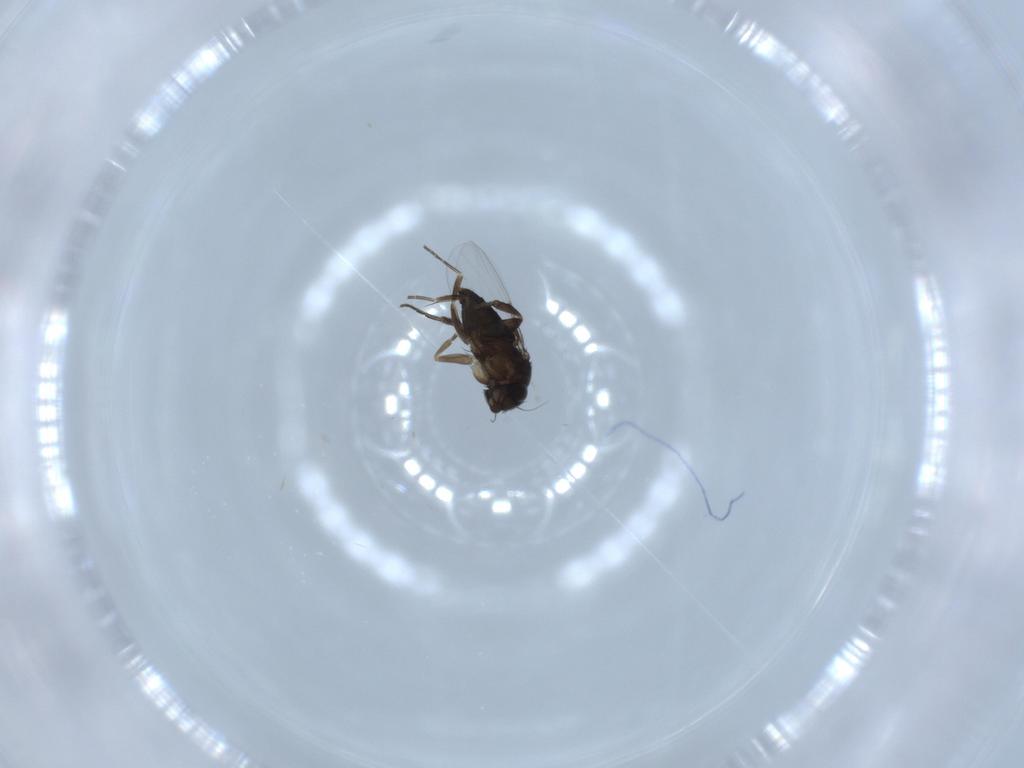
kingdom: Animalia
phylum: Arthropoda
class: Insecta
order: Diptera
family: Phoridae
